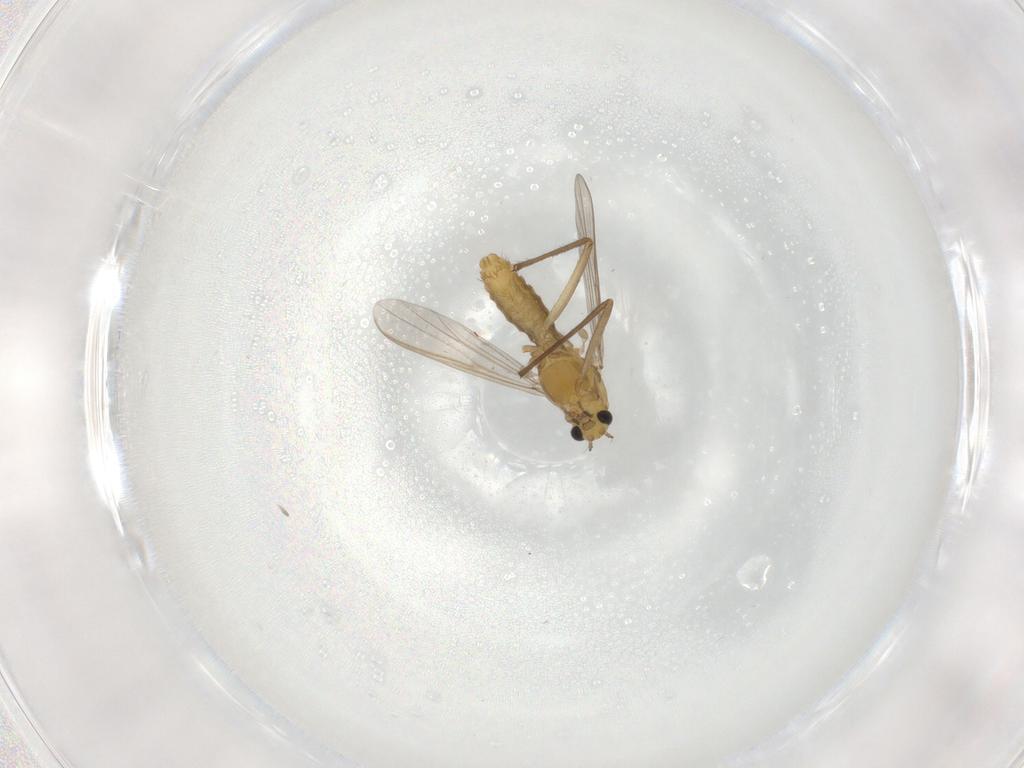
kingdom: Animalia
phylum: Arthropoda
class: Insecta
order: Diptera
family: Chironomidae
